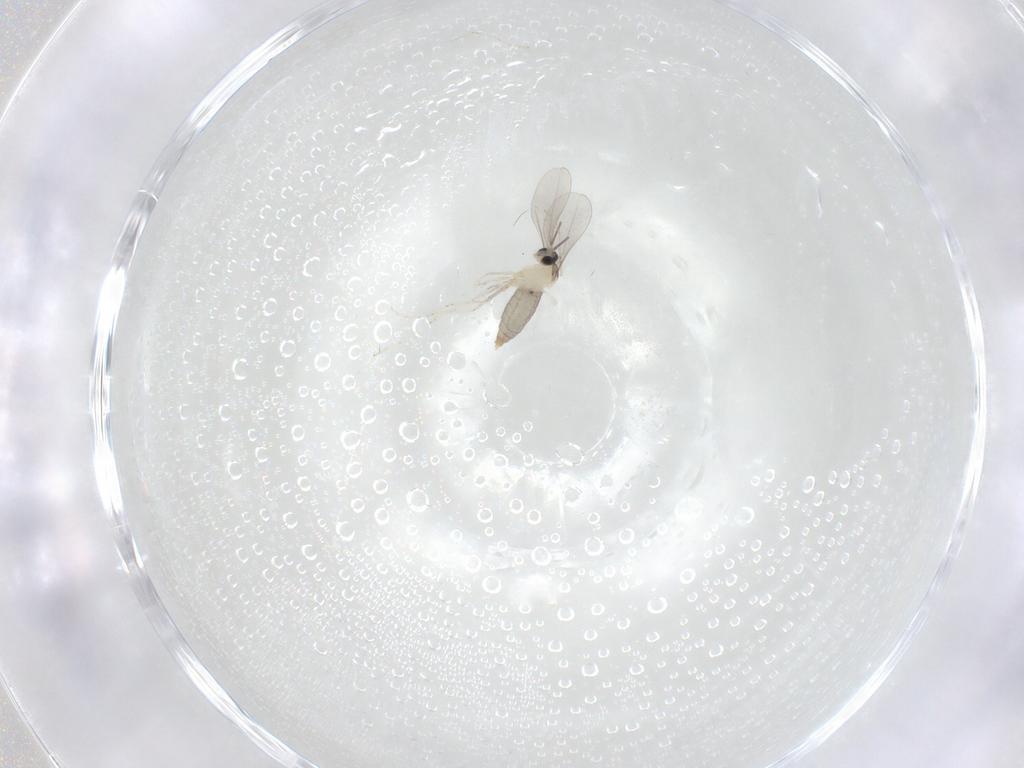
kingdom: Animalia
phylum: Arthropoda
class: Insecta
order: Diptera
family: Cecidomyiidae
